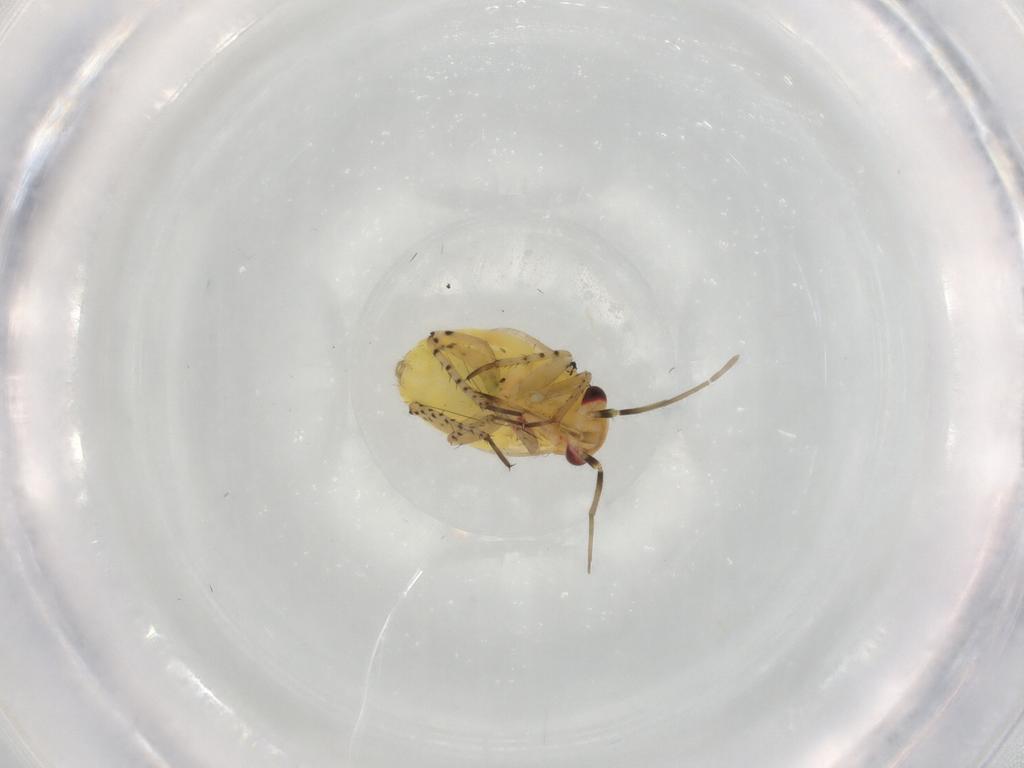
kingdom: Animalia
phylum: Arthropoda
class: Insecta
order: Hemiptera
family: Miridae
